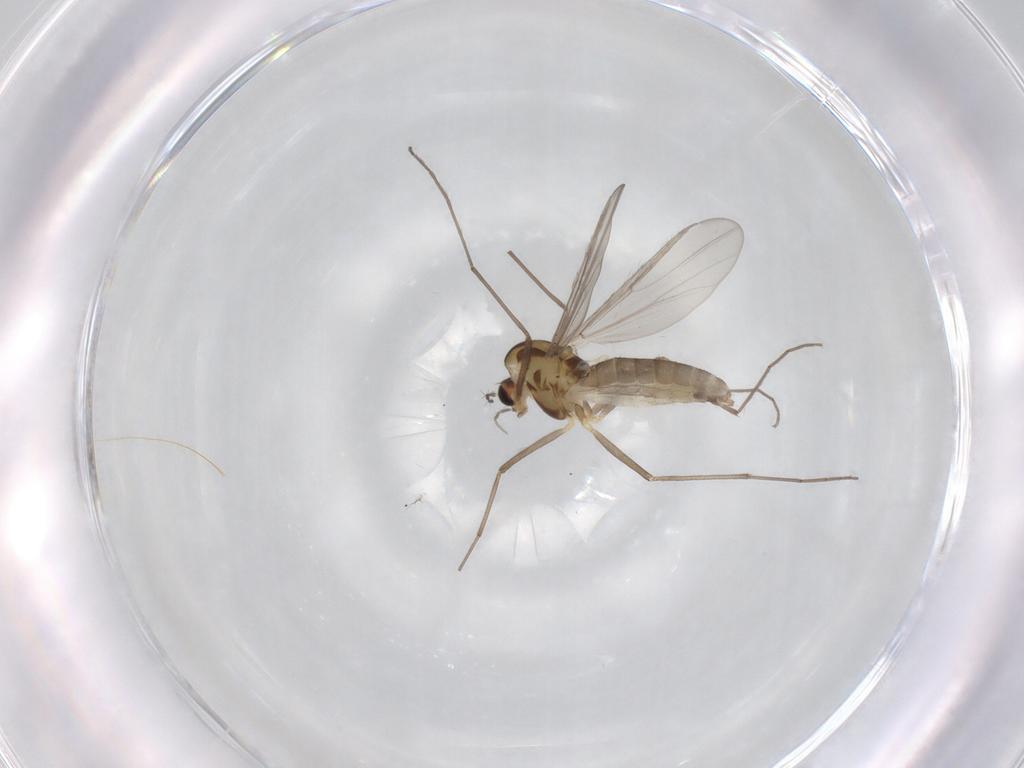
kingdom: Animalia
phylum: Arthropoda
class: Insecta
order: Diptera
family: Chironomidae
